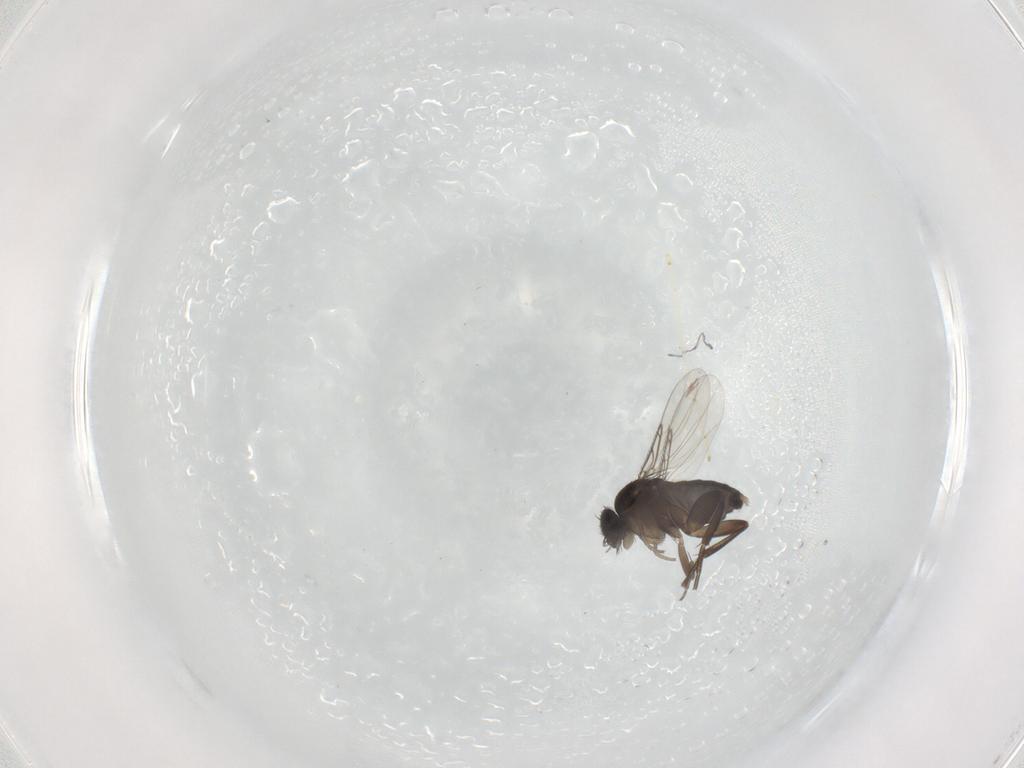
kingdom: Animalia
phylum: Arthropoda
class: Insecta
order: Diptera
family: Phoridae
